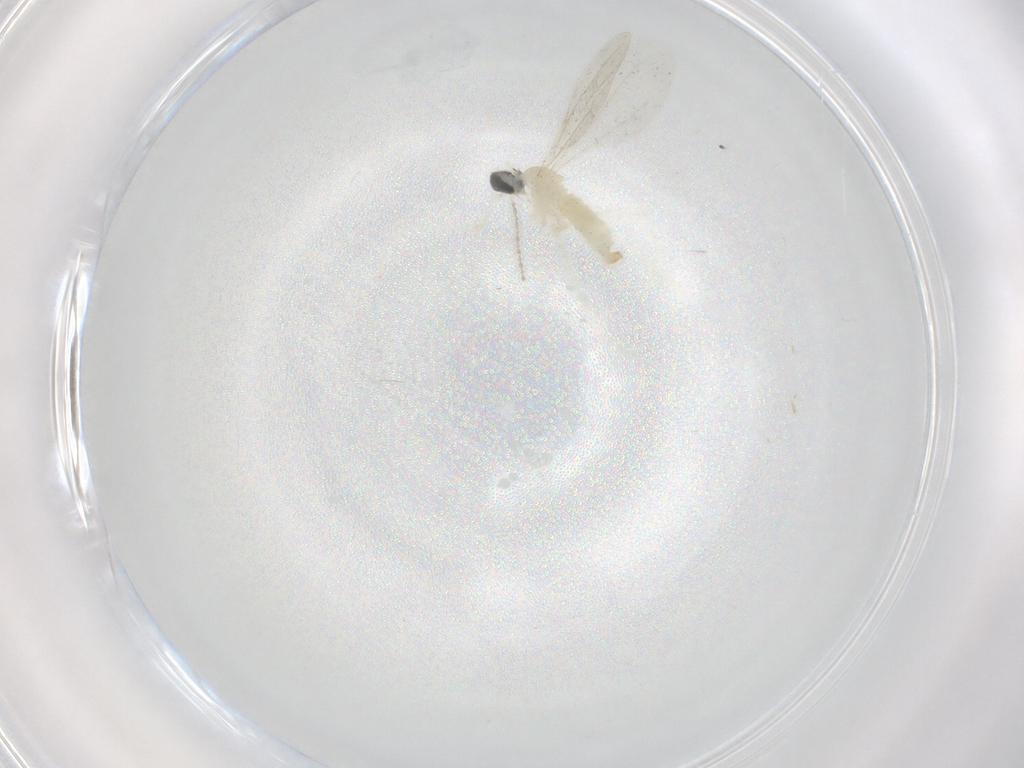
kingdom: Animalia
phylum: Arthropoda
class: Insecta
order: Diptera
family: Cecidomyiidae
